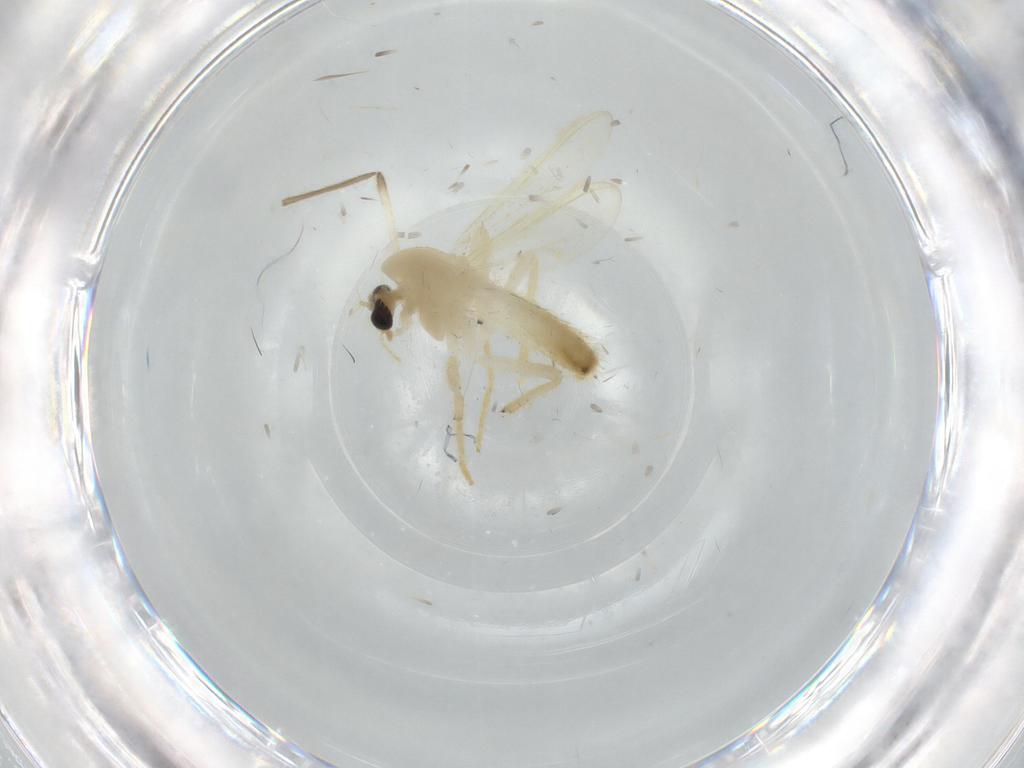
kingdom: Animalia
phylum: Arthropoda
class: Insecta
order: Diptera
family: Chironomidae
